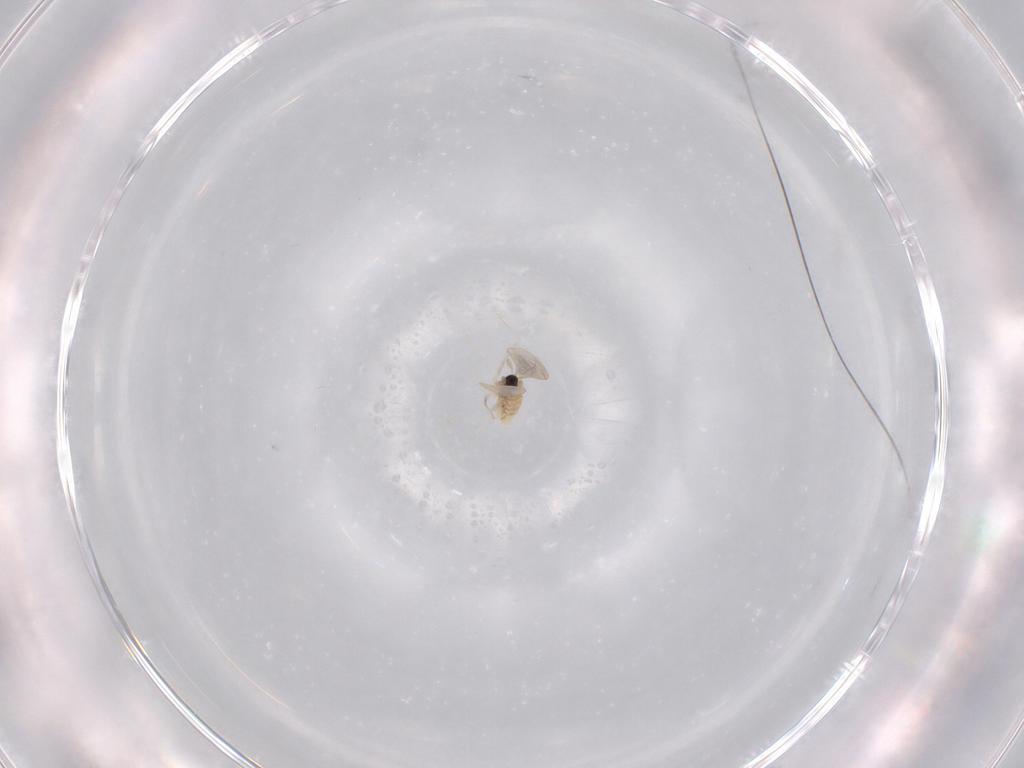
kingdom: Animalia
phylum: Arthropoda
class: Insecta
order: Diptera
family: Cecidomyiidae
